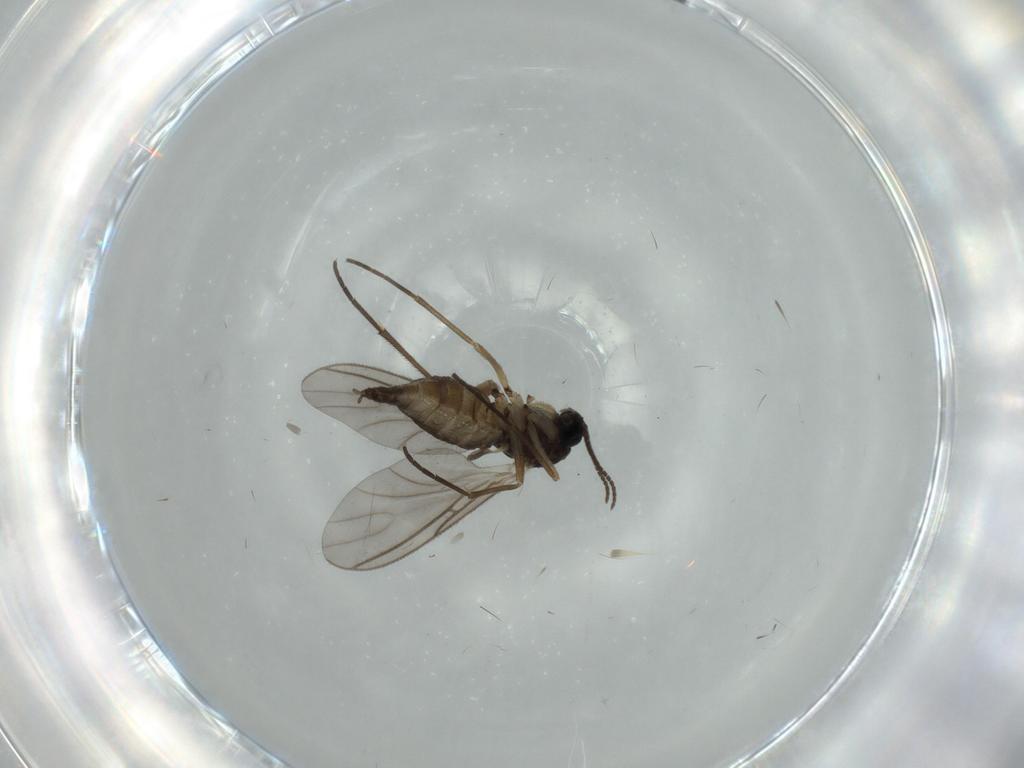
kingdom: Animalia
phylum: Arthropoda
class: Insecta
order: Diptera
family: Sciaridae
